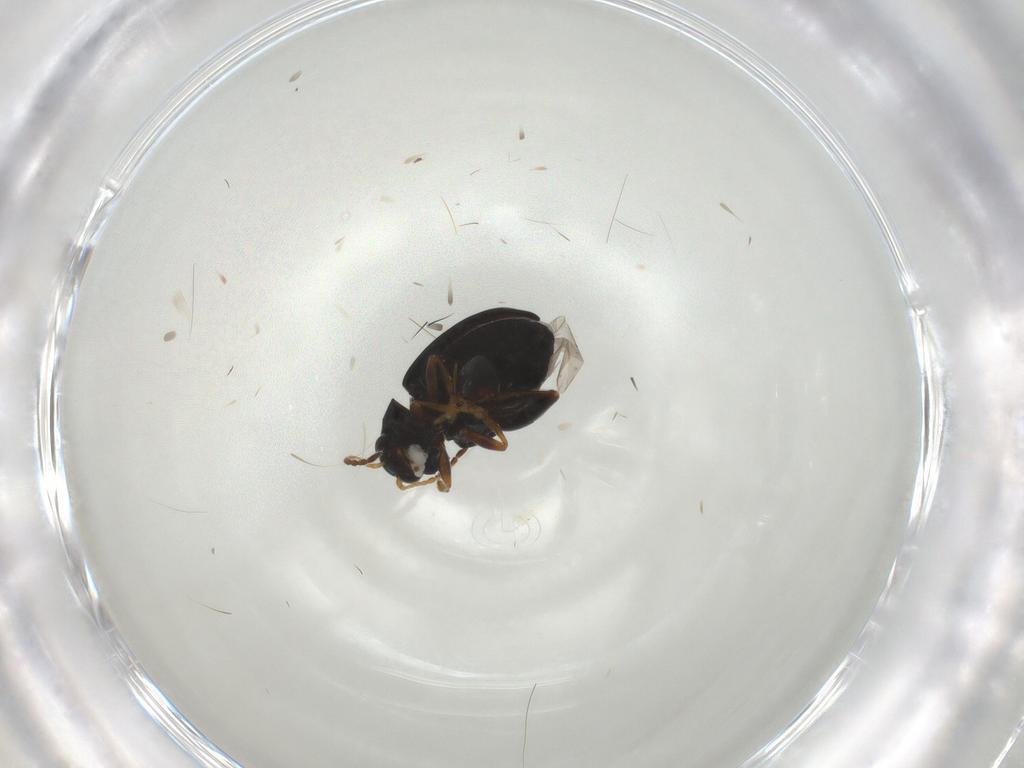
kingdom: Animalia
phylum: Arthropoda
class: Insecta
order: Coleoptera
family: Chrysomelidae
